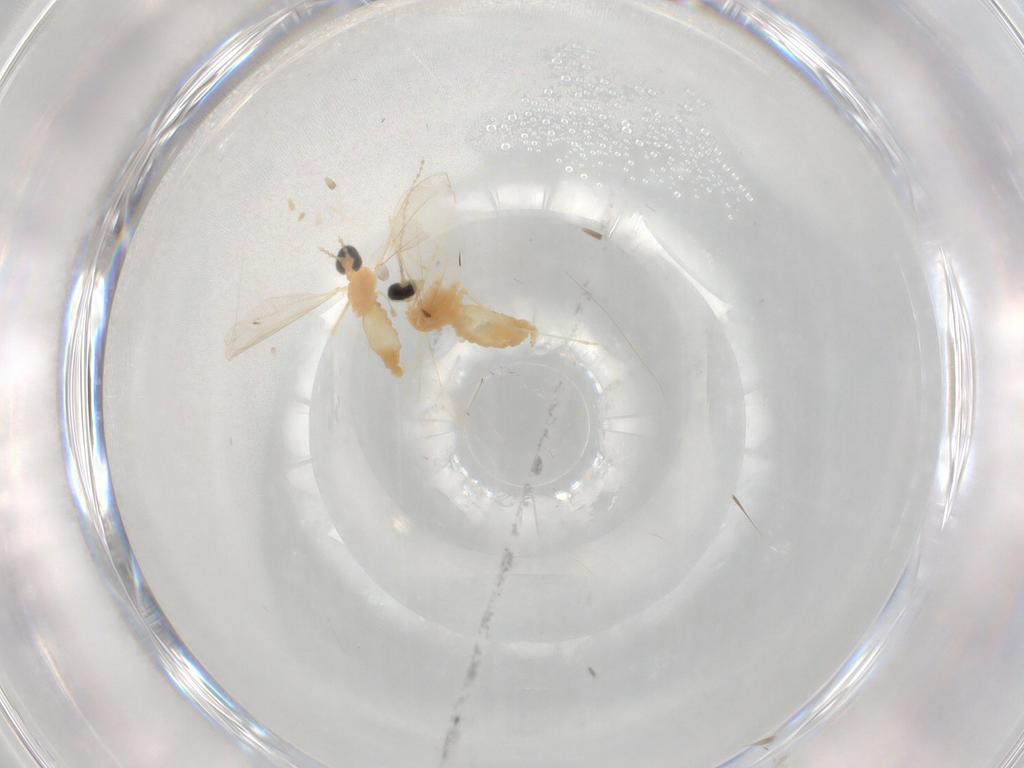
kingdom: Animalia
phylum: Arthropoda
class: Insecta
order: Diptera
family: Cecidomyiidae
